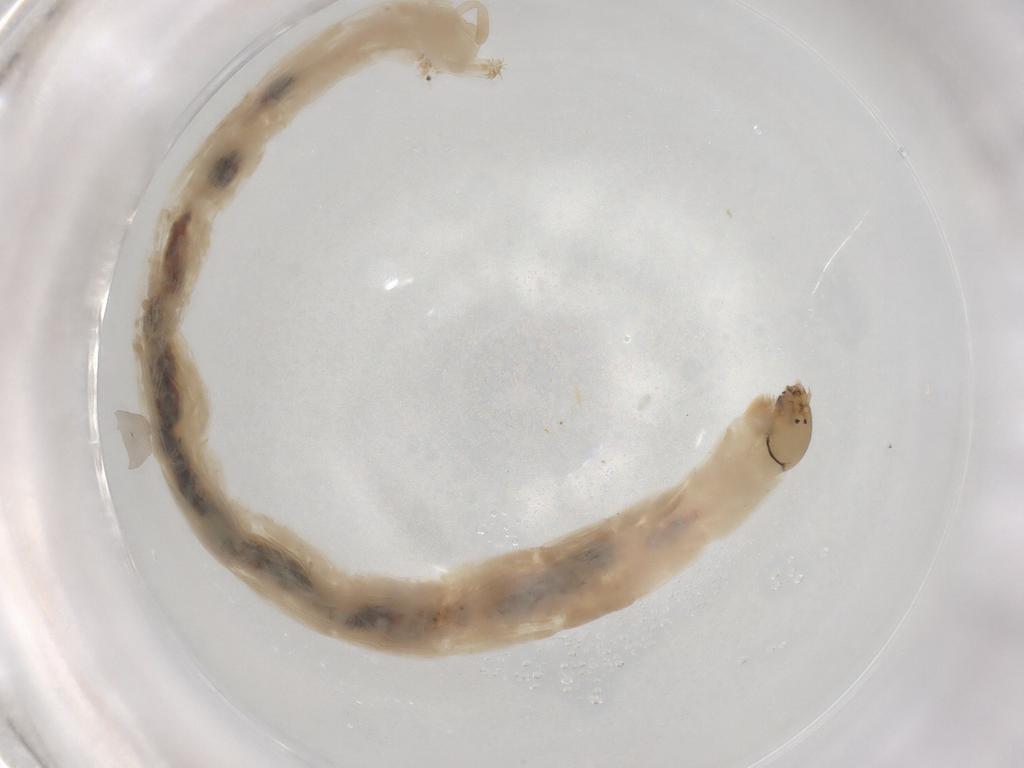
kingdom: Animalia
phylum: Arthropoda
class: Insecta
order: Diptera
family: Chironomidae
